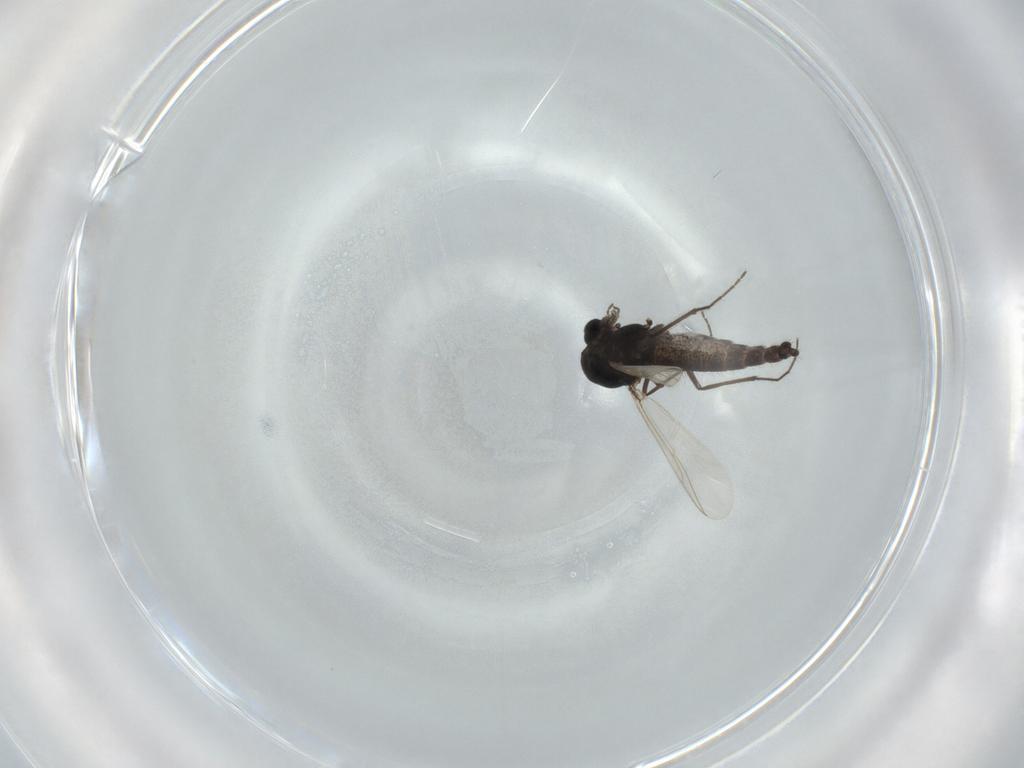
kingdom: Animalia
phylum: Arthropoda
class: Insecta
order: Diptera
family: Chironomidae
